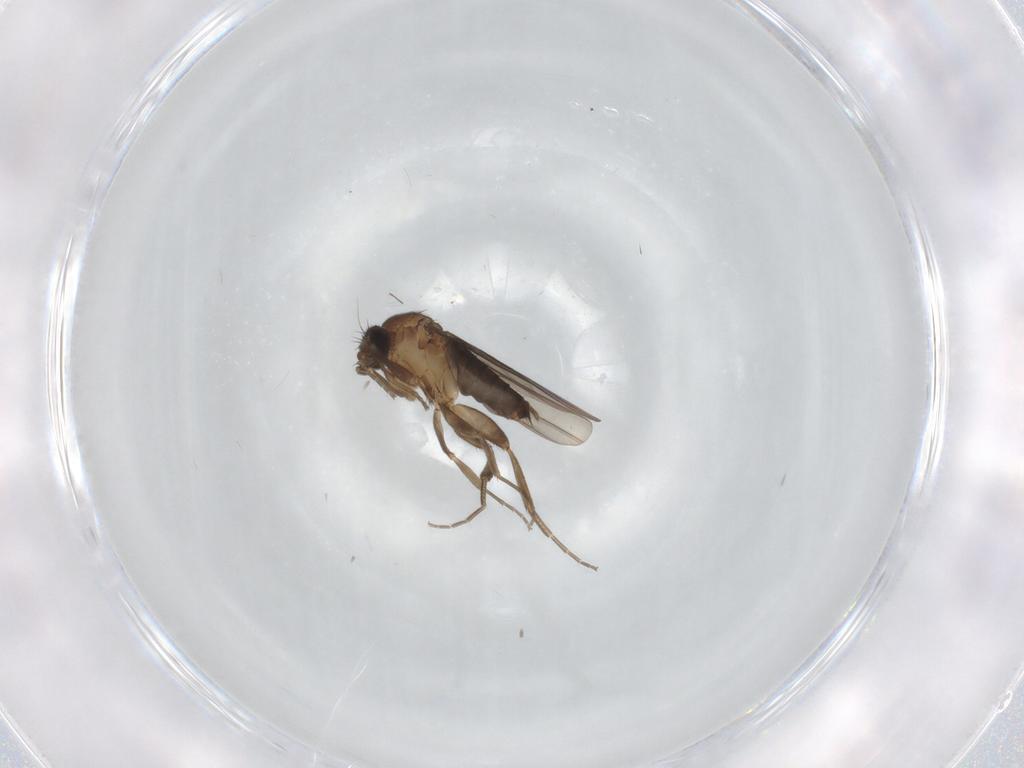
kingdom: Animalia
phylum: Arthropoda
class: Insecta
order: Diptera
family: Phoridae
